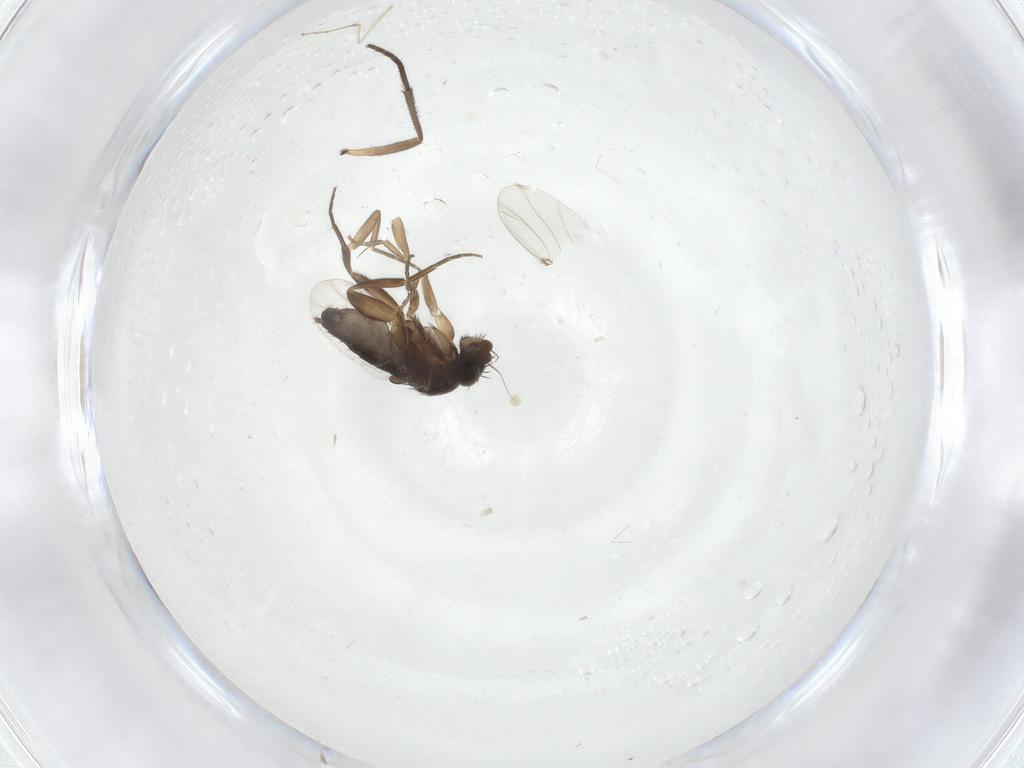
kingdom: Animalia
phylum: Arthropoda
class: Insecta
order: Diptera
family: Phoridae
